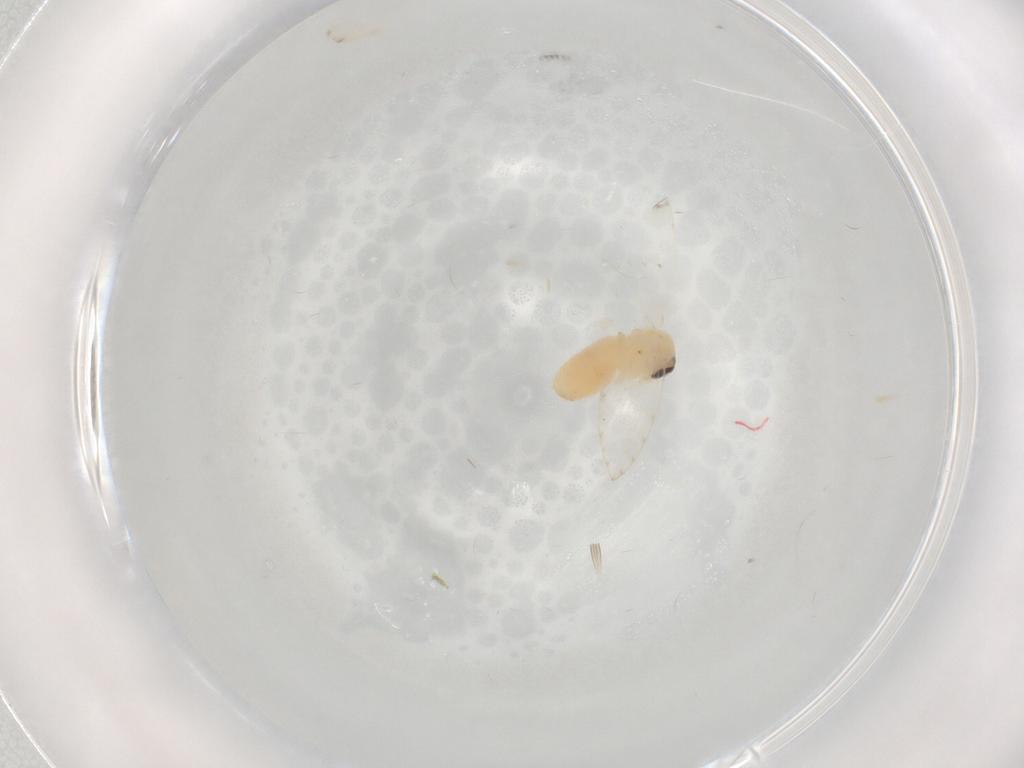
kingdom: Animalia
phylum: Arthropoda
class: Insecta
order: Diptera
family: Psychodidae
